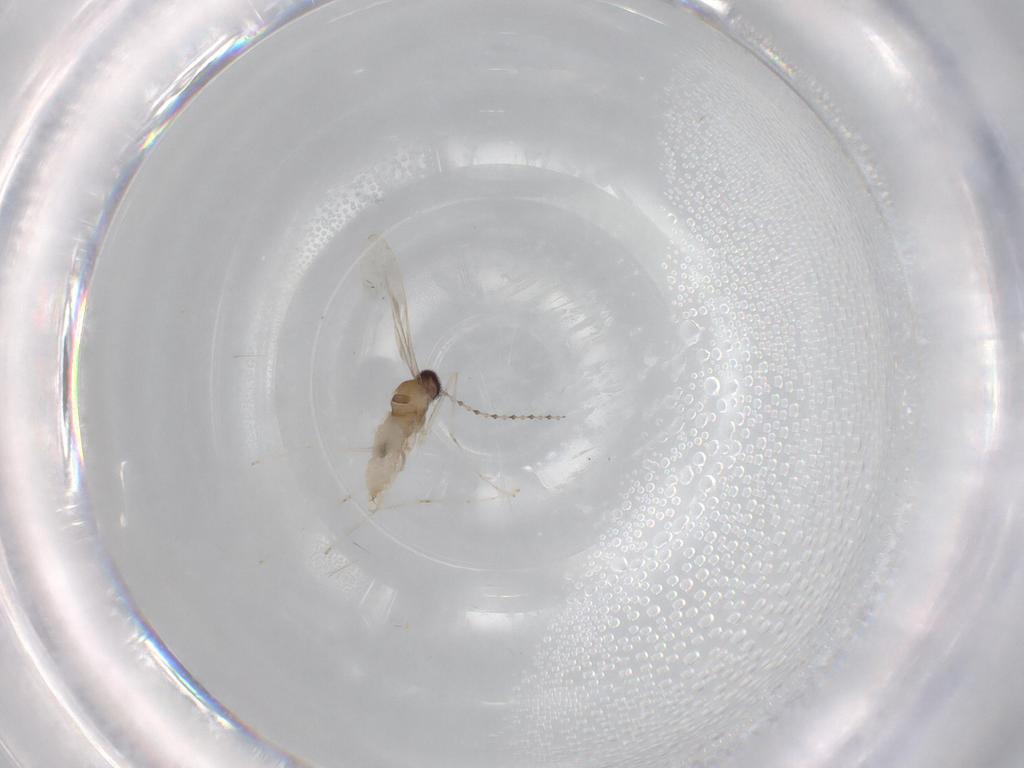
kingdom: Animalia
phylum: Arthropoda
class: Insecta
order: Diptera
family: Cecidomyiidae
